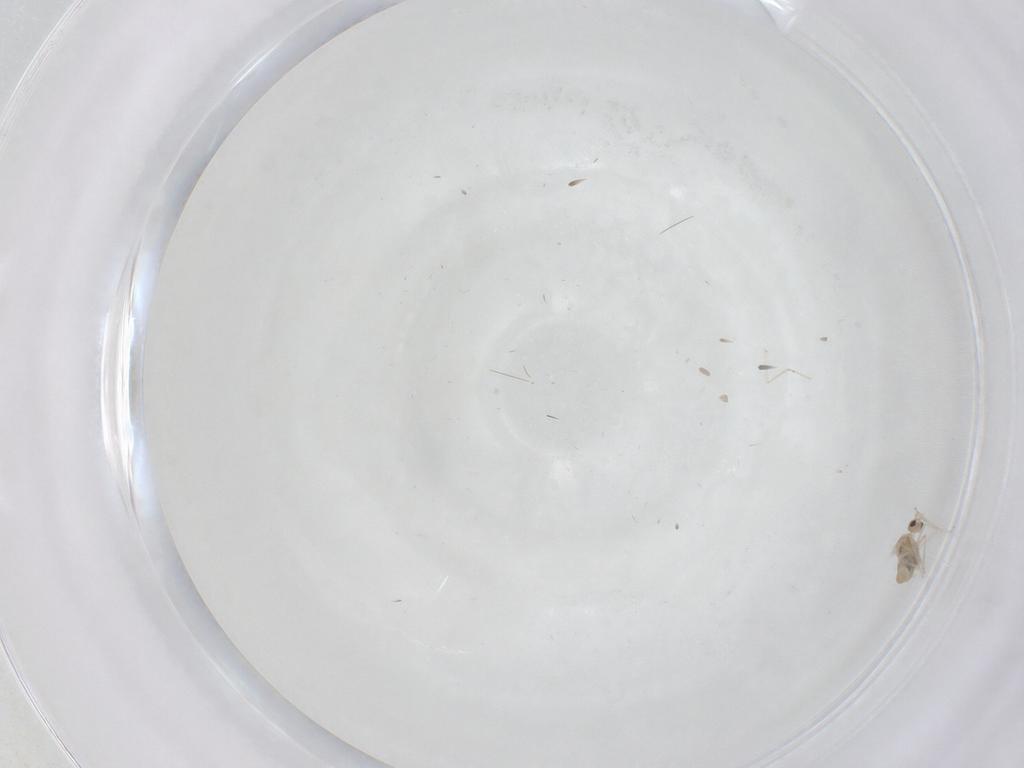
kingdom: Animalia
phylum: Arthropoda
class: Insecta
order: Diptera
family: Cecidomyiidae
